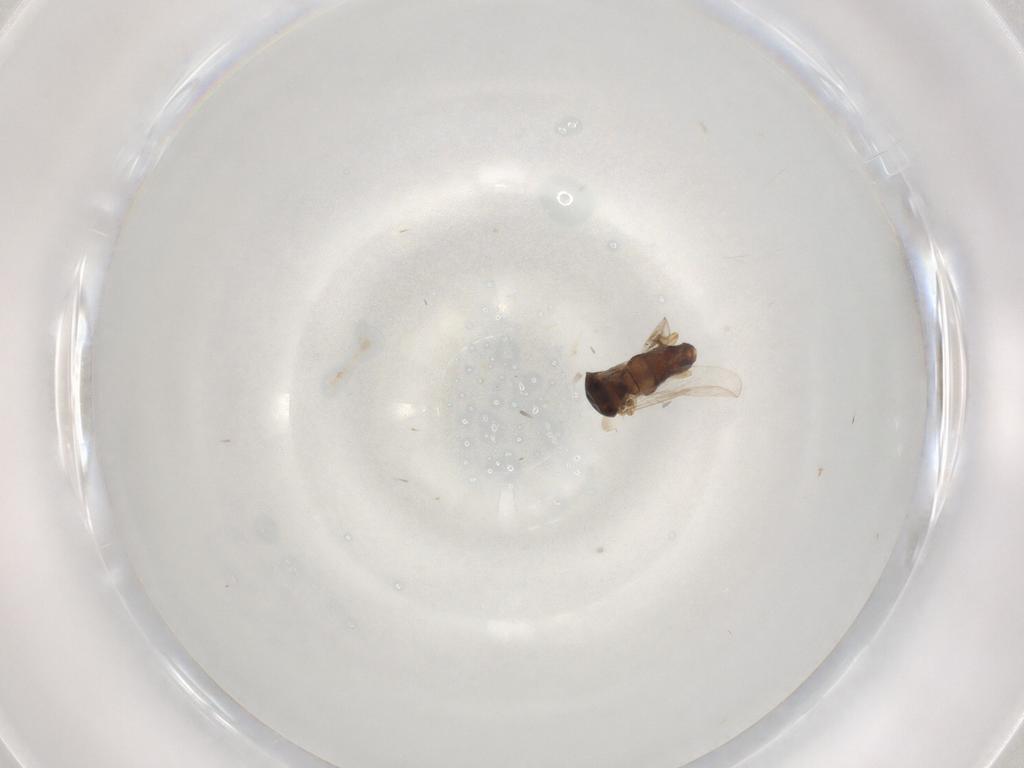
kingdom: Animalia
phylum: Arthropoda
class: Insecta
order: Diptera
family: Ceratopogonidae
